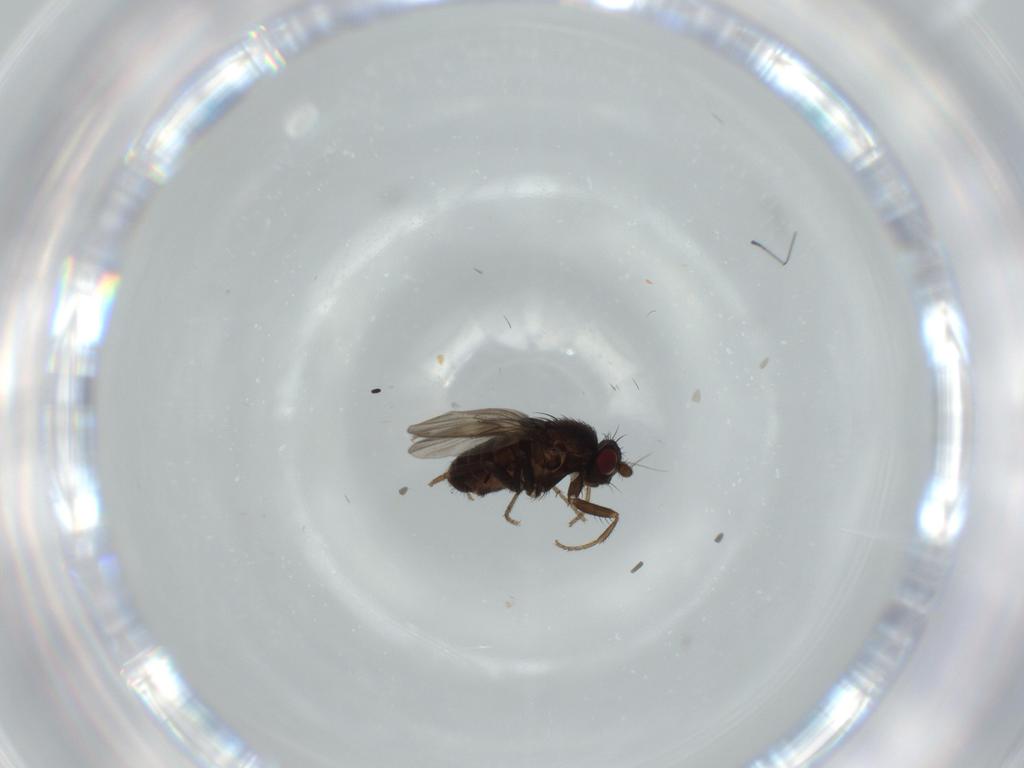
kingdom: Animalia
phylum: Arthropoda
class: Insecta
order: Diptera
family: Sphaeroceridae
